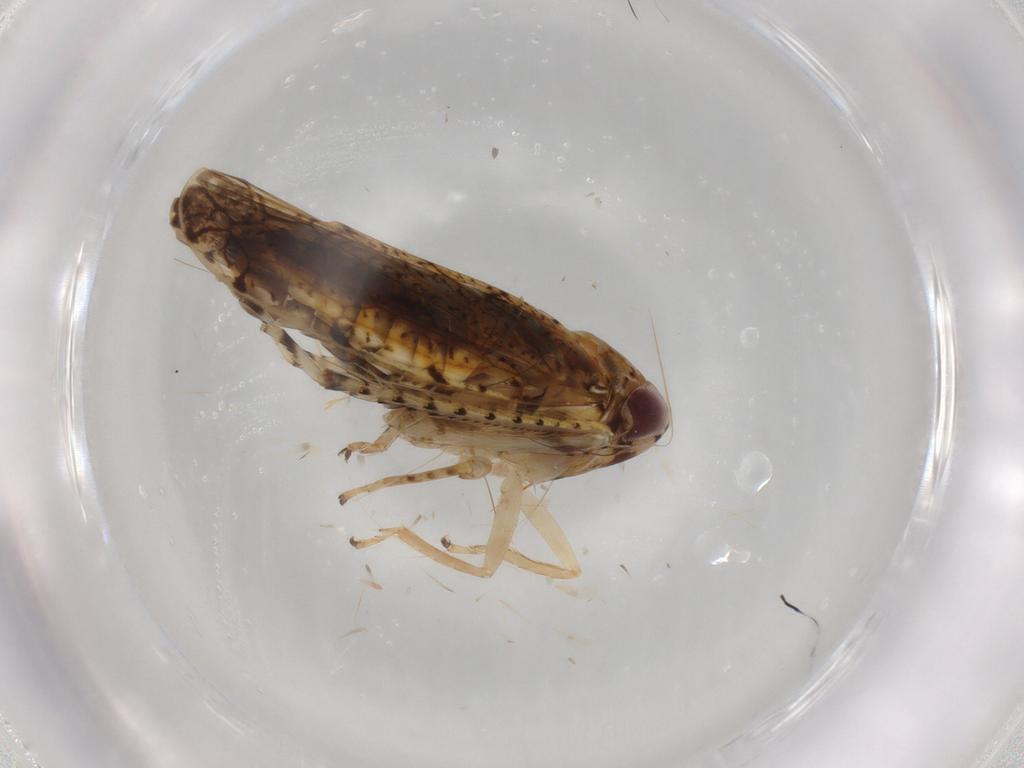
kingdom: Animalia
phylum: Arthropoda
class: Insecta
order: Hemiptera
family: Cicadellidae
